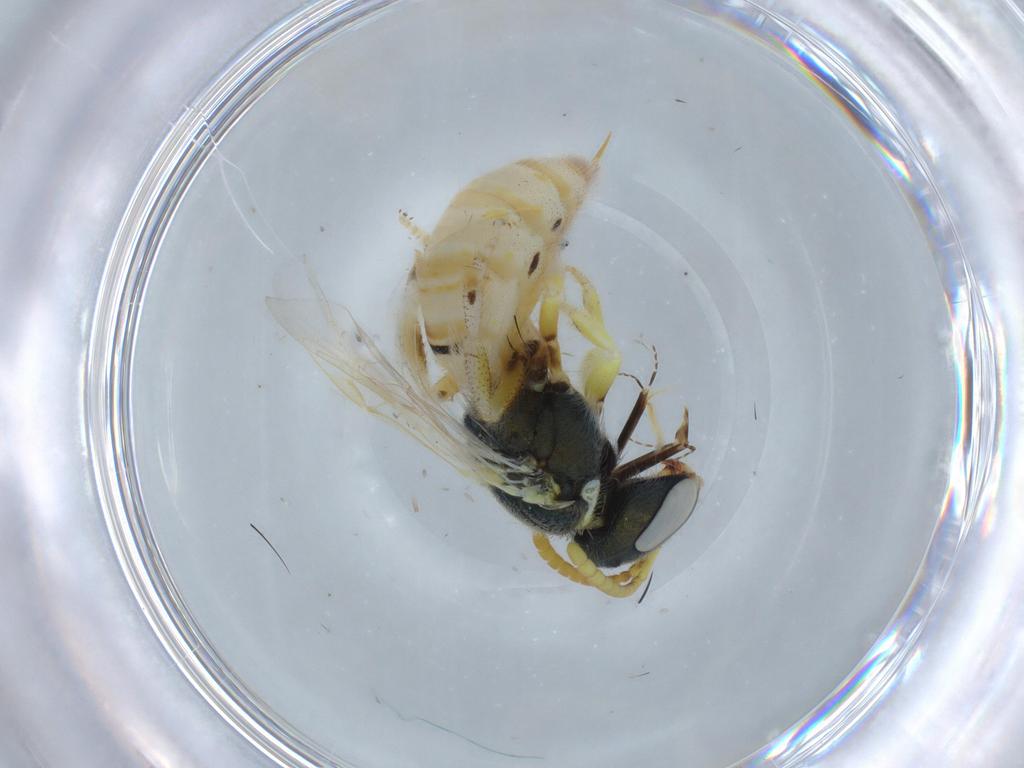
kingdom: Animalia
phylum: Arthropoda
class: Insecta
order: Hymenoptera
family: Halictidae
